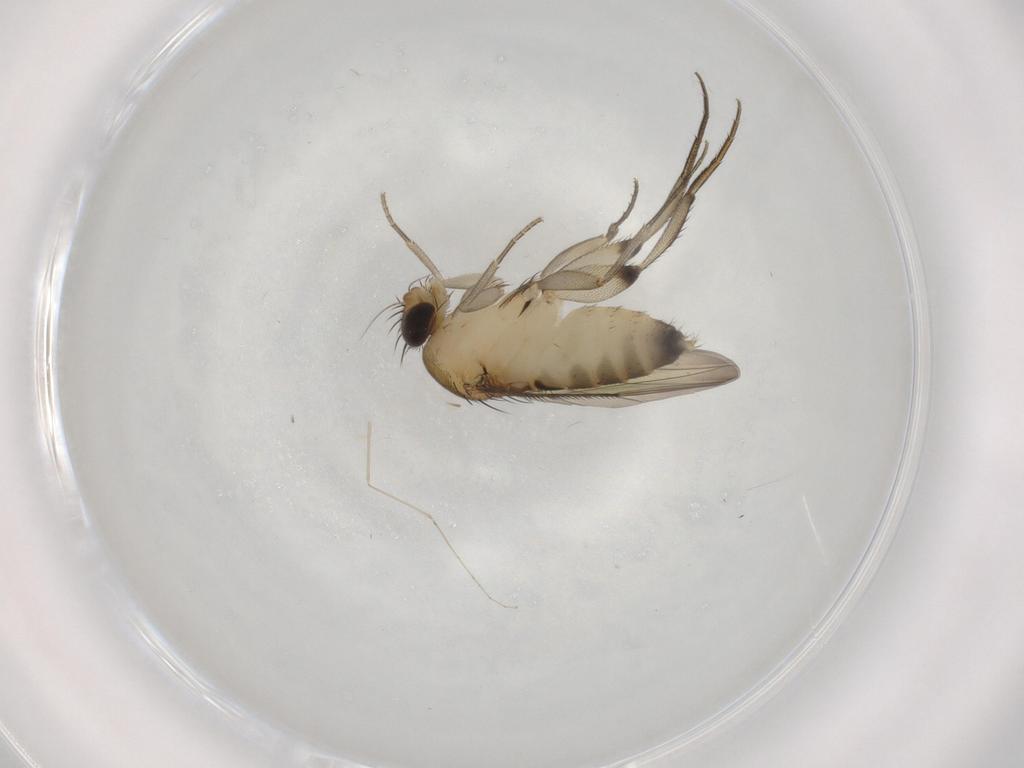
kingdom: Animalia
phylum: Arthropoda
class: Insecta
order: Diptera
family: Phoridae
